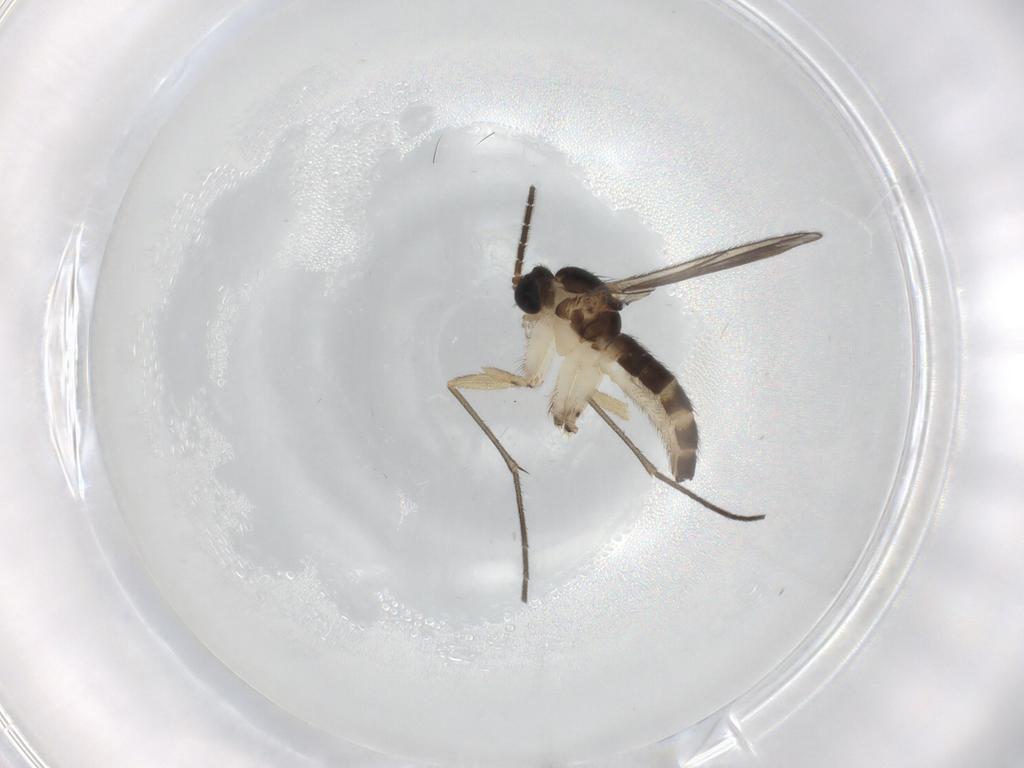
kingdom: Animalia
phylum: Arthropoda
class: Insecta
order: Diptera
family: Sciaridae
